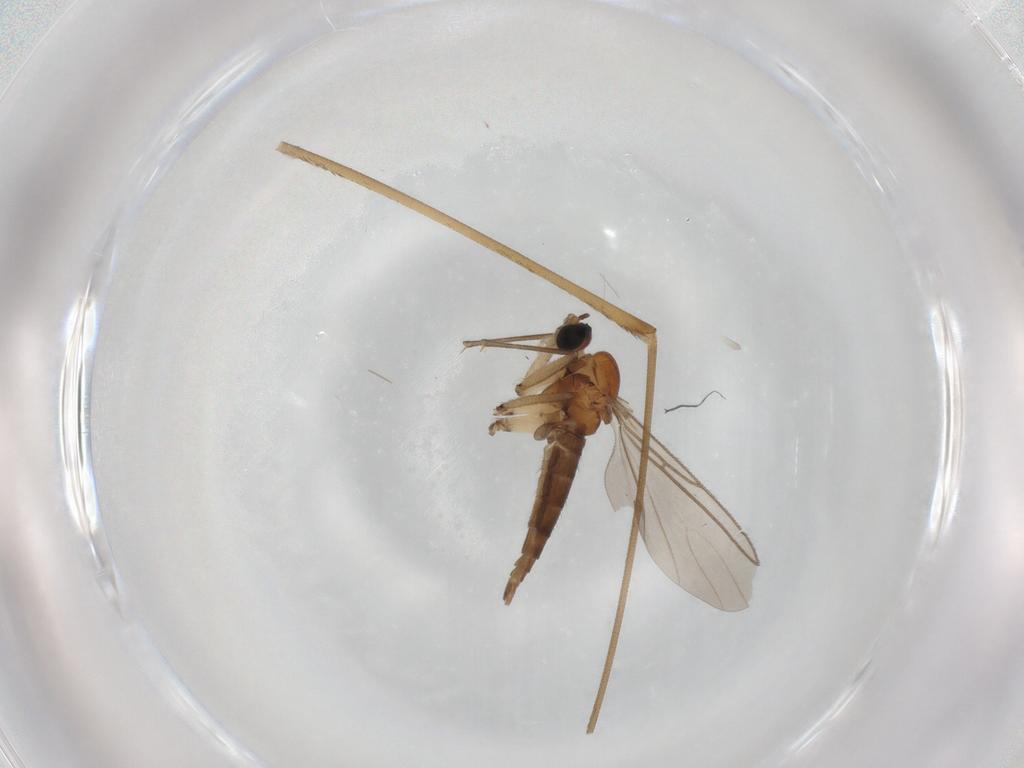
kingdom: Animalia
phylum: Arthropoda
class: Insecta
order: Diptera
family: Sciaridae
